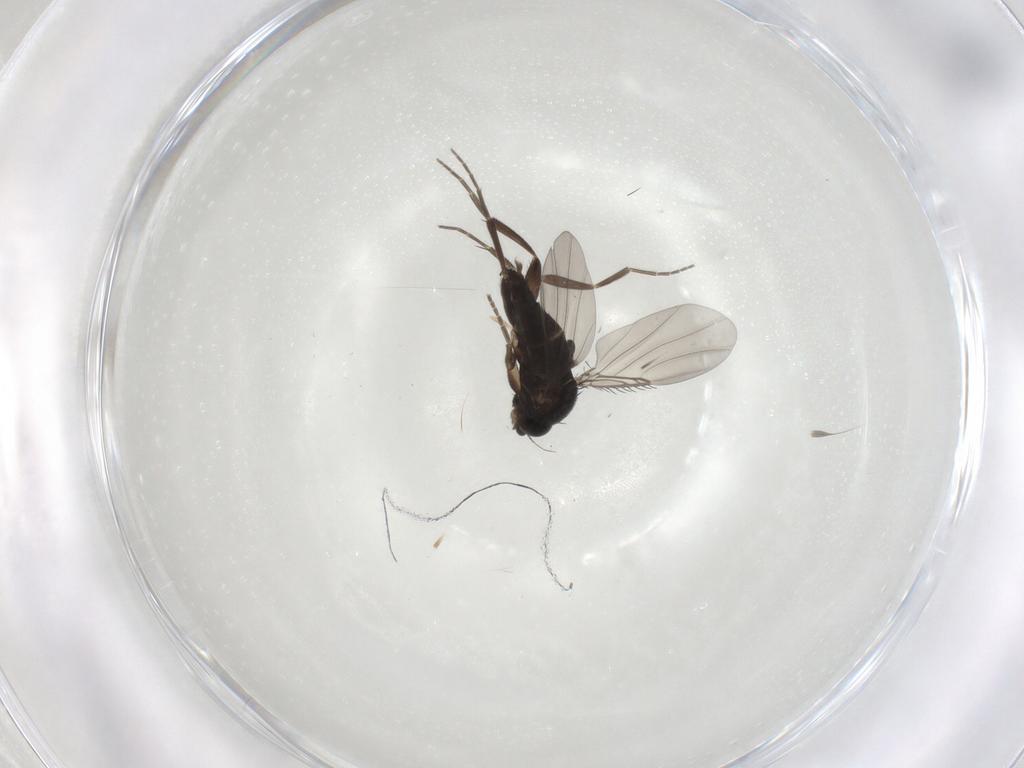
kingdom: Animalia
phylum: Arthropoda
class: Insecta
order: Diptera
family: Phoridae
